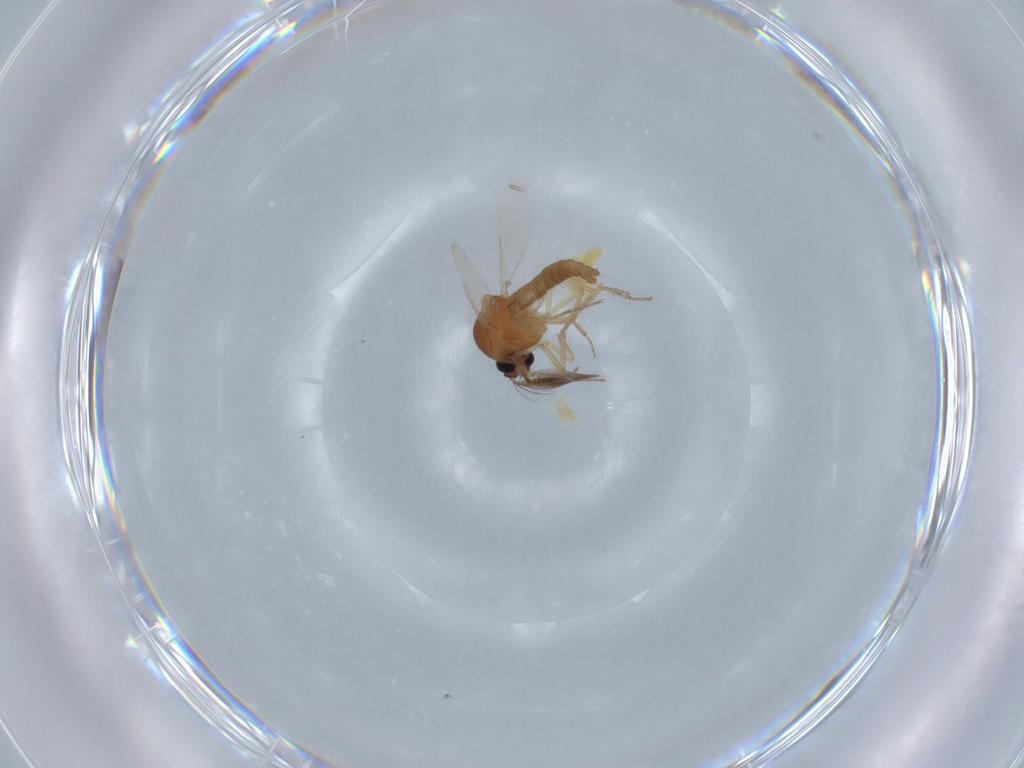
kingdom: Animalia
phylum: Arthropoda
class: Insecta
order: Diptera
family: Ceratopogonidae
